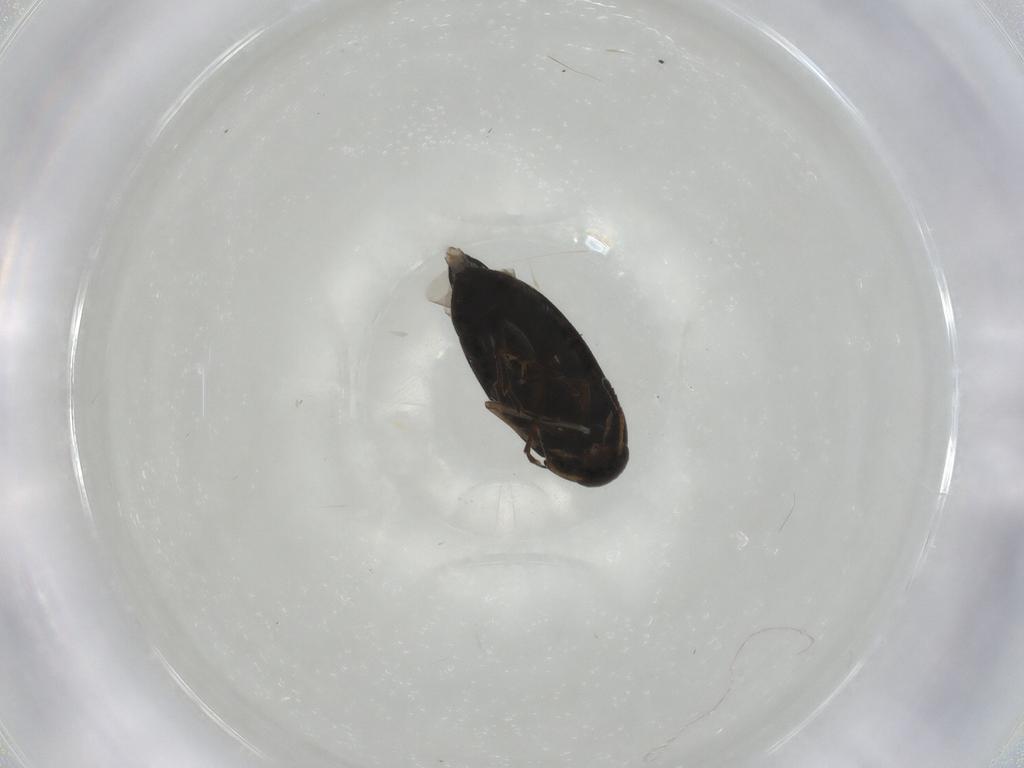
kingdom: Animalia
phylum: Arthropoda
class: Insecta
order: Coleoptera
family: Scraptiidae
